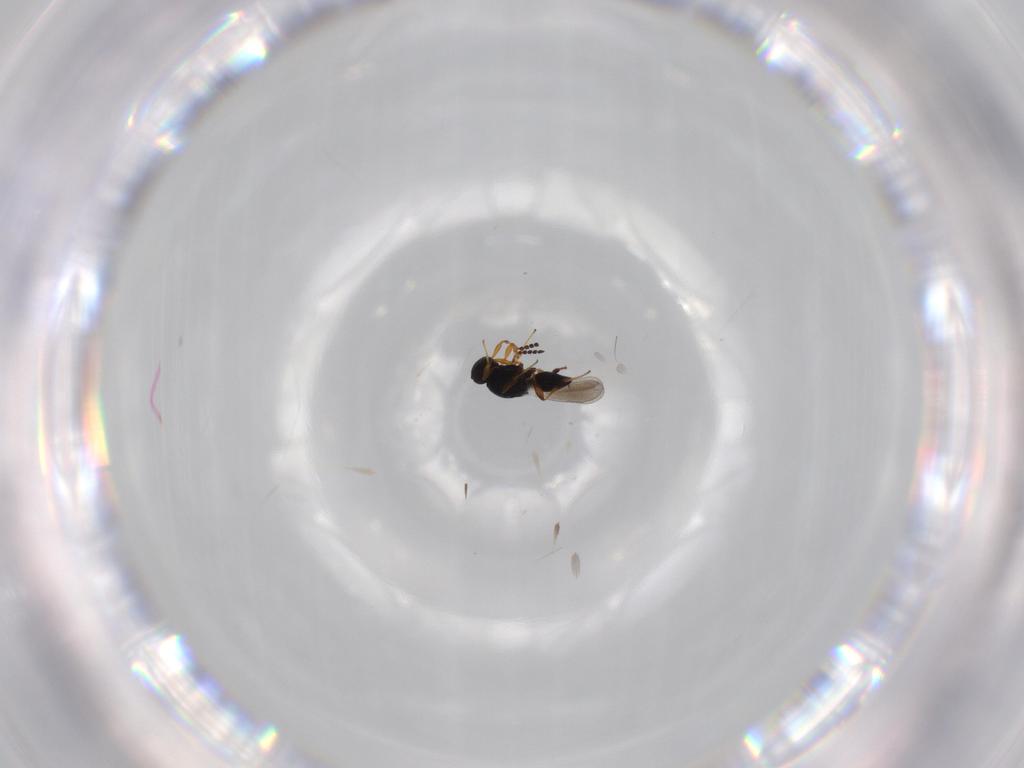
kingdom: Animalia
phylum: Arthropoda
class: Insecta
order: Hymenoptera
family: Platygastridae
